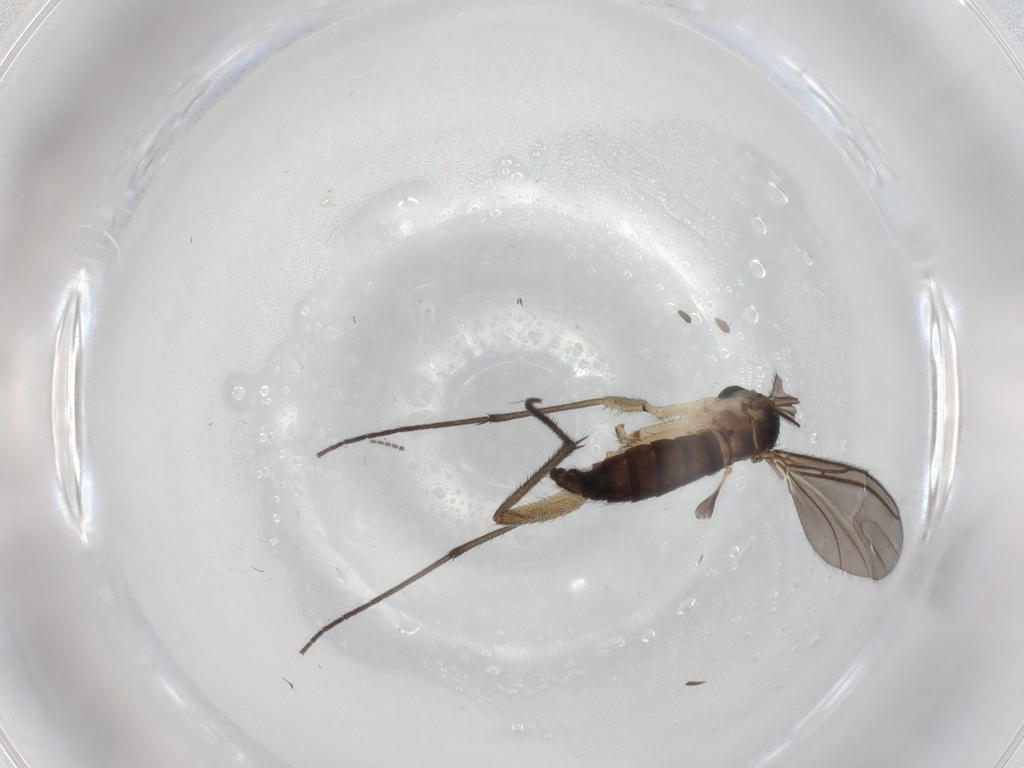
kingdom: Animalia
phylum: Arthropoda
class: Insecta
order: Diptera
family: Sciaridae
